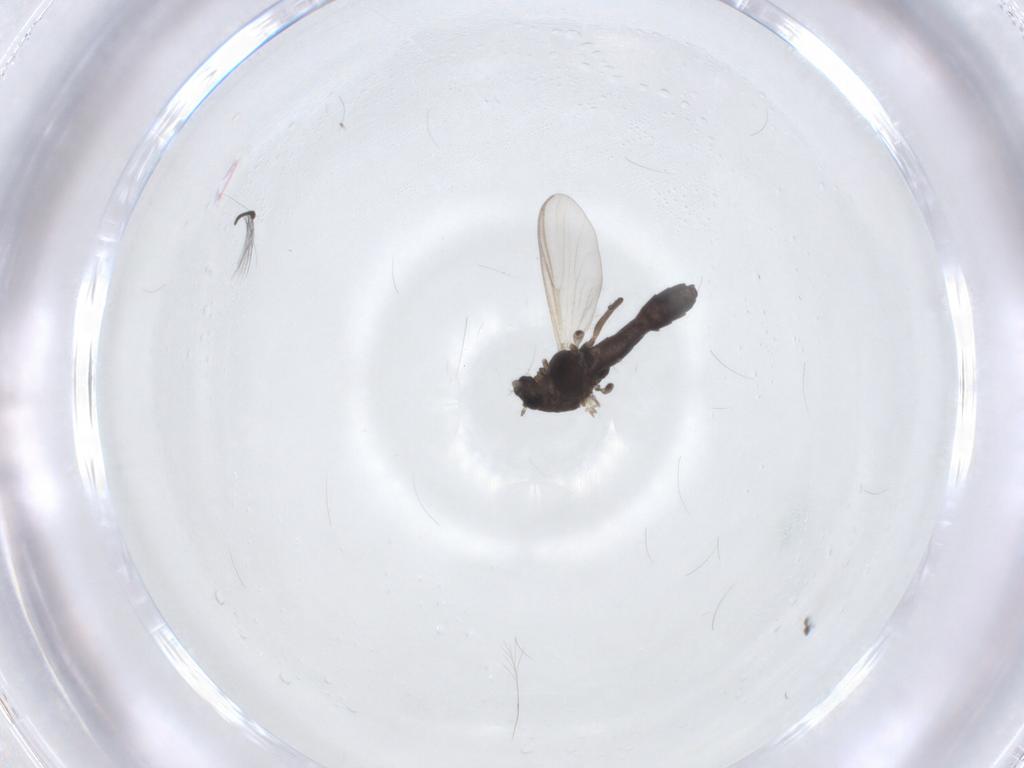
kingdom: Animalia
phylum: Arthropoda
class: Insecta
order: Diptera
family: Chironomidae
